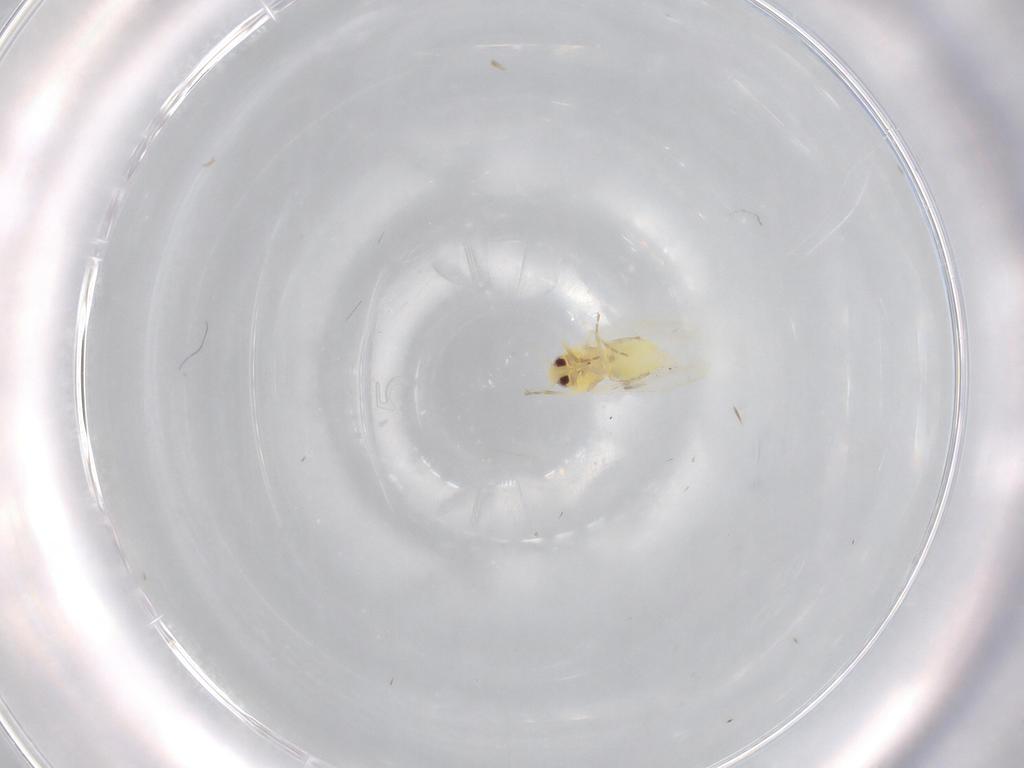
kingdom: Animalia
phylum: Arthropoda
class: Insecta
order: Hemiptera
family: Aleyrodidae
